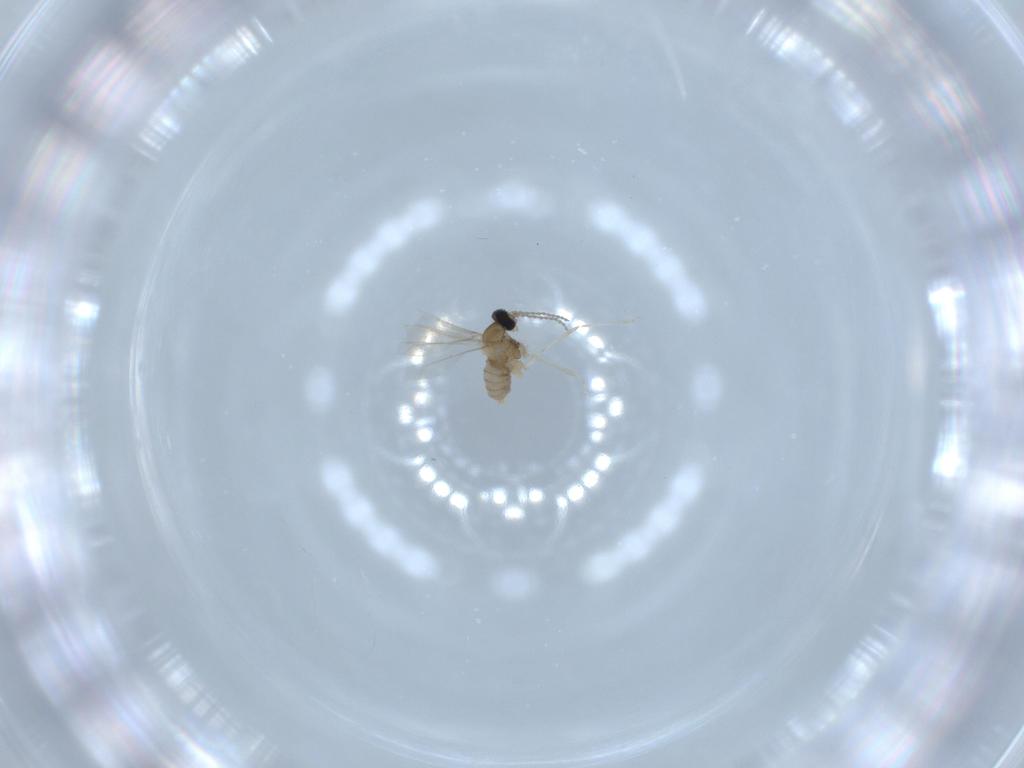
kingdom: Animalia
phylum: Arthropoda
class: Insecta
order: Diptera
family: Cecidomyiidae
